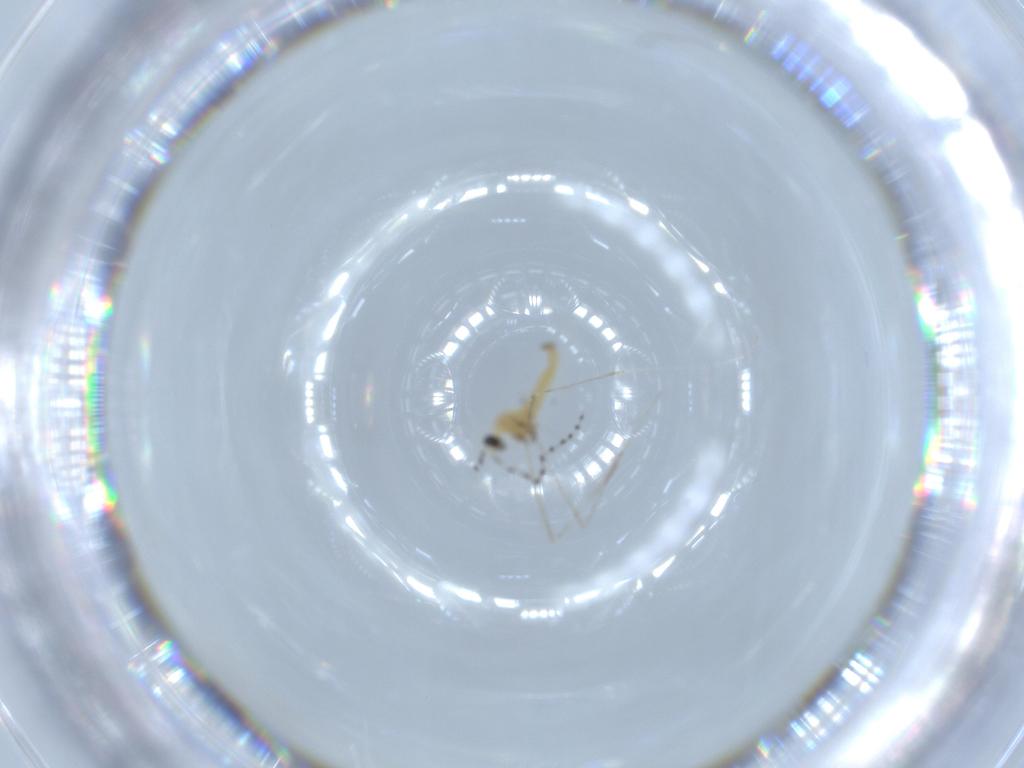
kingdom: Animalia
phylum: Arthropoda
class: Insecta
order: Diptera
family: Cecidomyiidae
